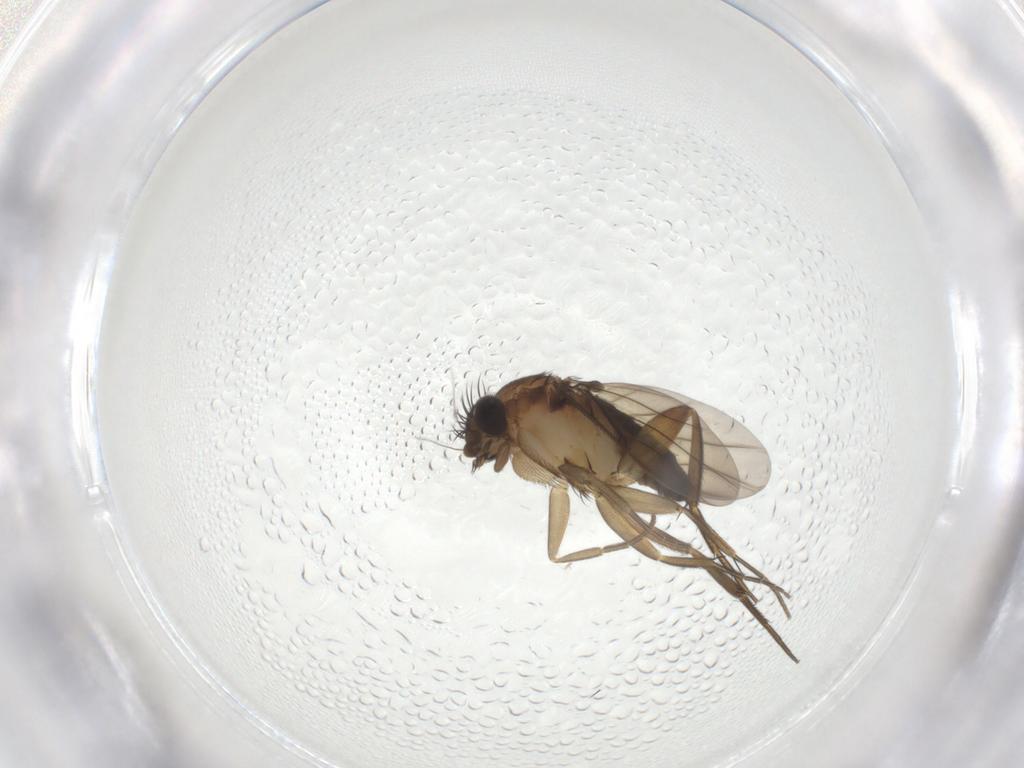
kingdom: Animalia
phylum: Arthropoda
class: Insecta
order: Diptera
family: Phoridae
